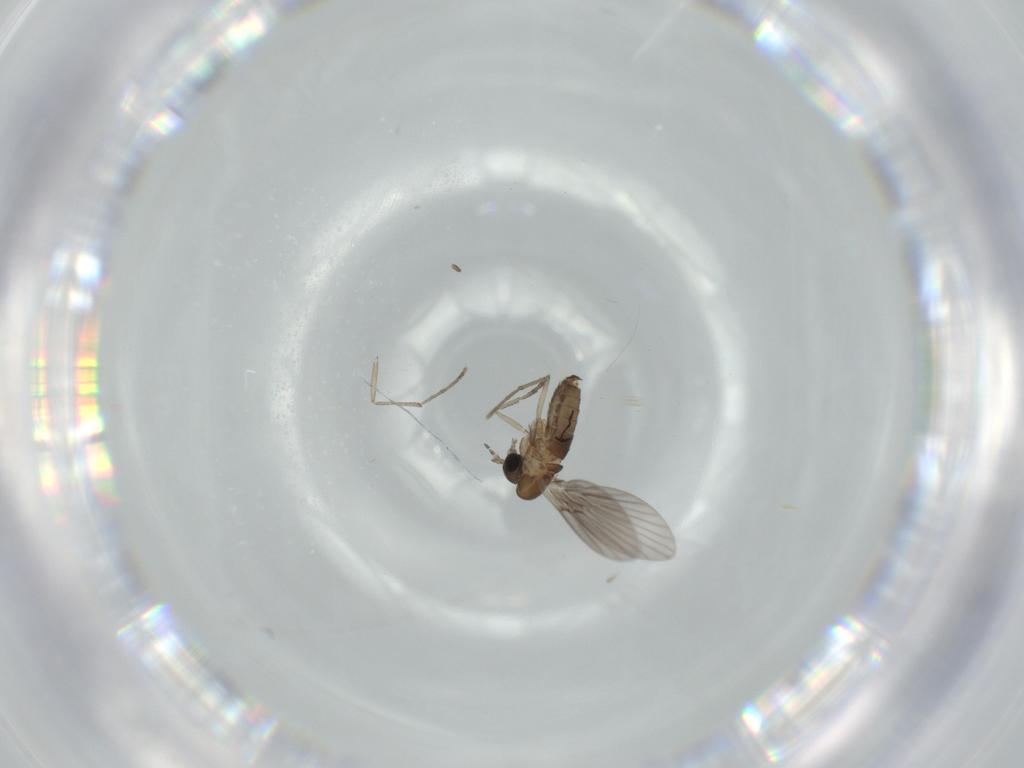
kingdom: Animalia
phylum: Arthropoda
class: Insecta
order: Diptera
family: Psychodidae
